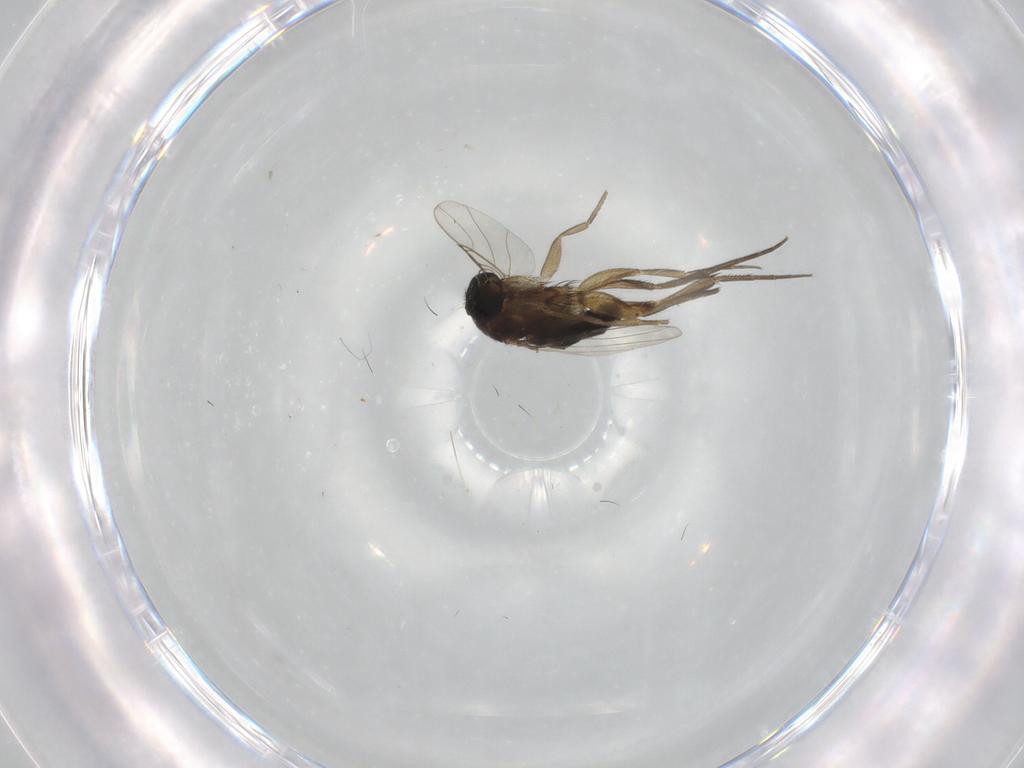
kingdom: Animalia
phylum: Arthropoda
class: Insecta
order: Diptera
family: Phoridae
